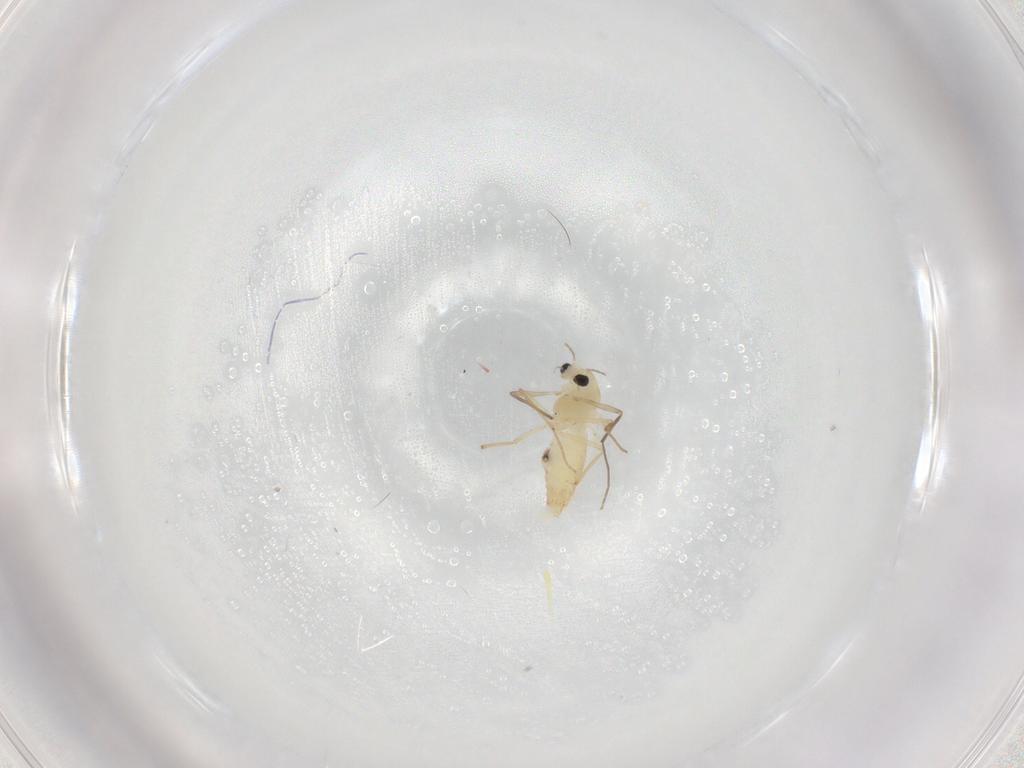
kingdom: Animalia
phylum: Arthropoda
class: Insecta
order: Diptera
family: Chironomidae
